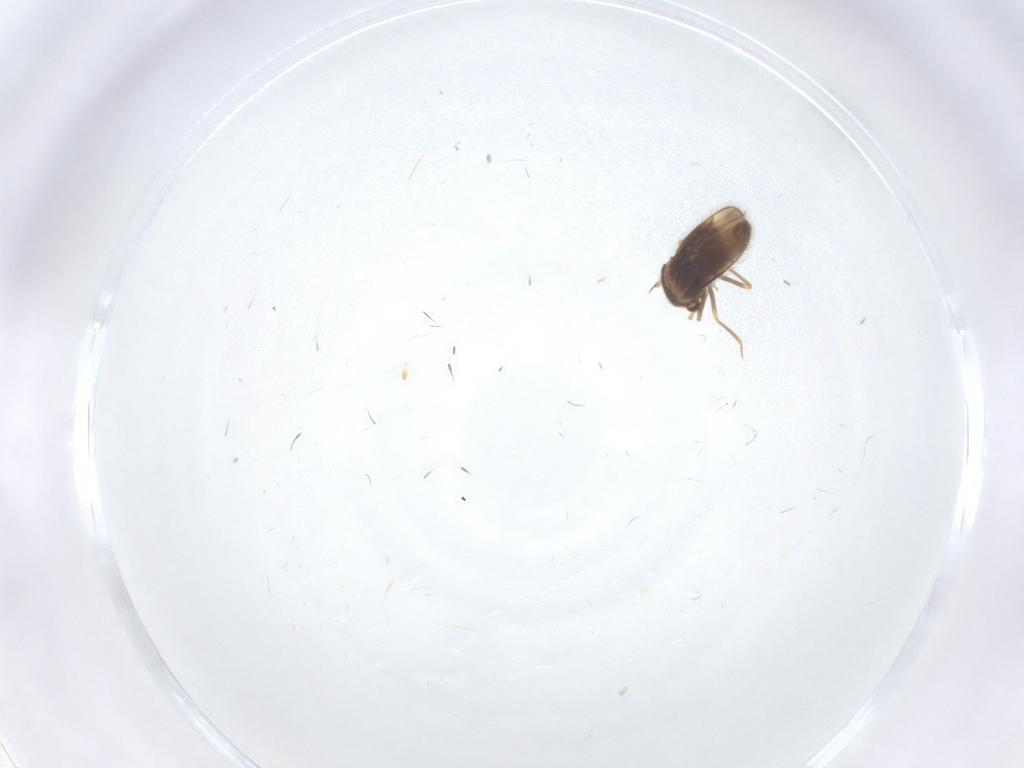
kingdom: Animalia
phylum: Arthropoda
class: Insecta
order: Hemiptera
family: Schizopteridae
